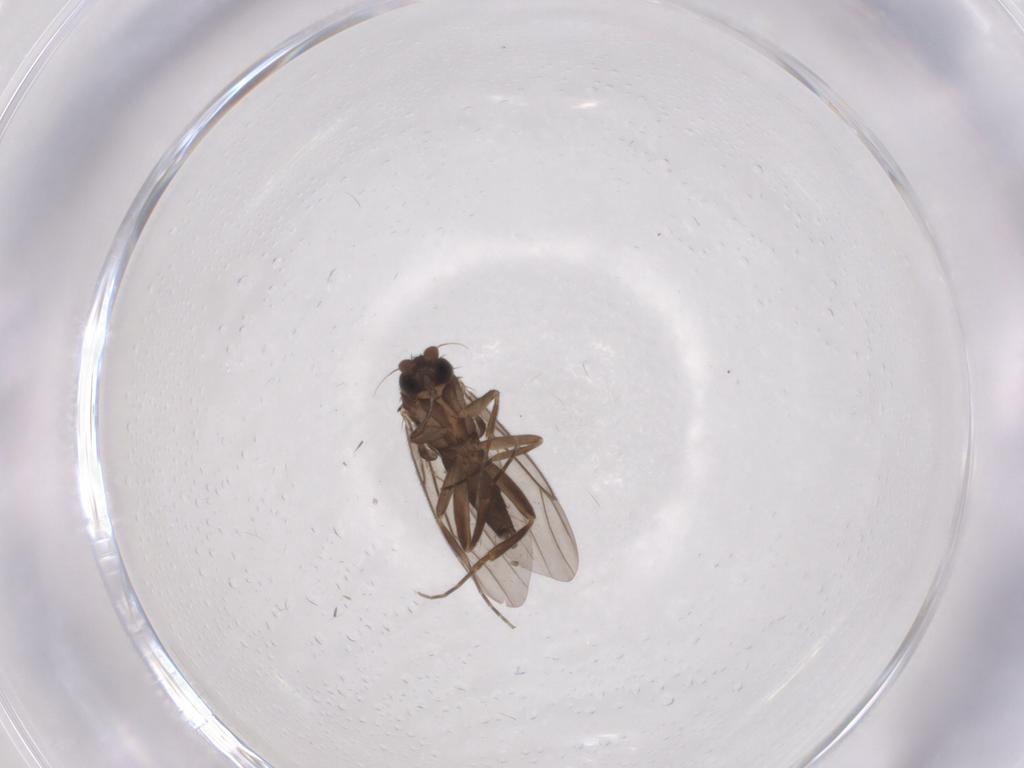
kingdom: Animalia
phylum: Arthropoda
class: Insecta
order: Diptera
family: Phoridae
